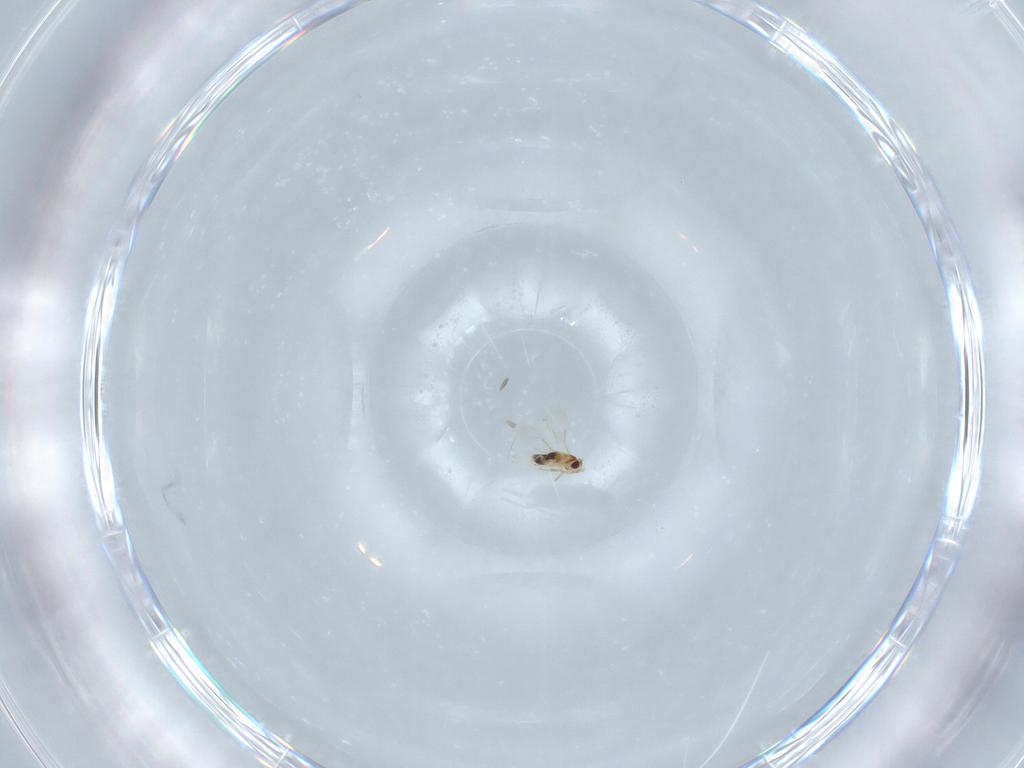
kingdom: Animalia
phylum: Arthropoda
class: Insecta
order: Hymenoptera
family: Aphelinidae
